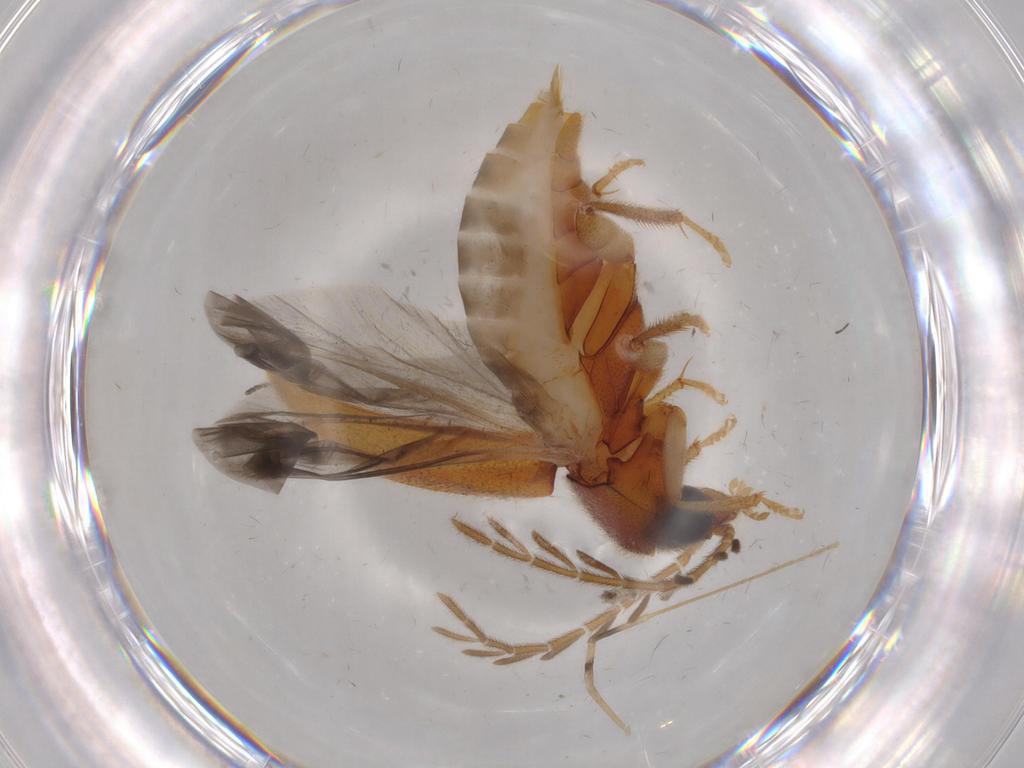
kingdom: Animalia
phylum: Arthropoda
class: Insecta
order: Coleoptera
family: Ptilodactylidae
